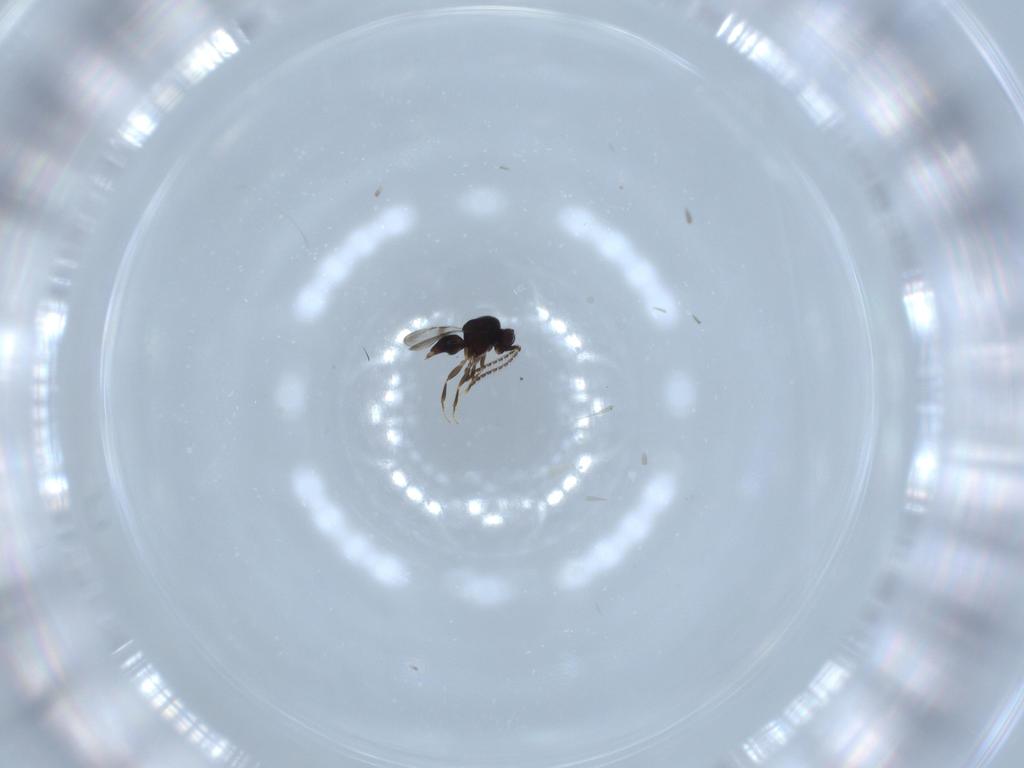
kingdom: Animalia
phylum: Arthropoda
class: Insecta
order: Hymenoptera
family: Ceraphronidae
